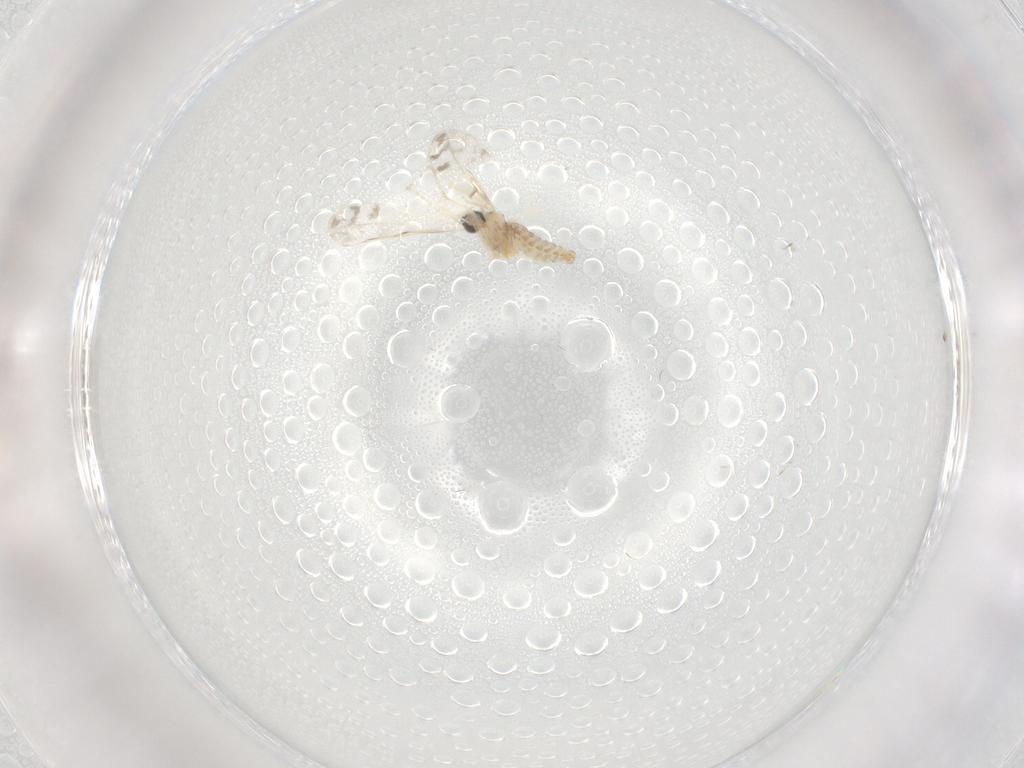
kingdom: Animalia
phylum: Arthropoda
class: Insecta
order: Diptera
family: Cecidomyiidae
